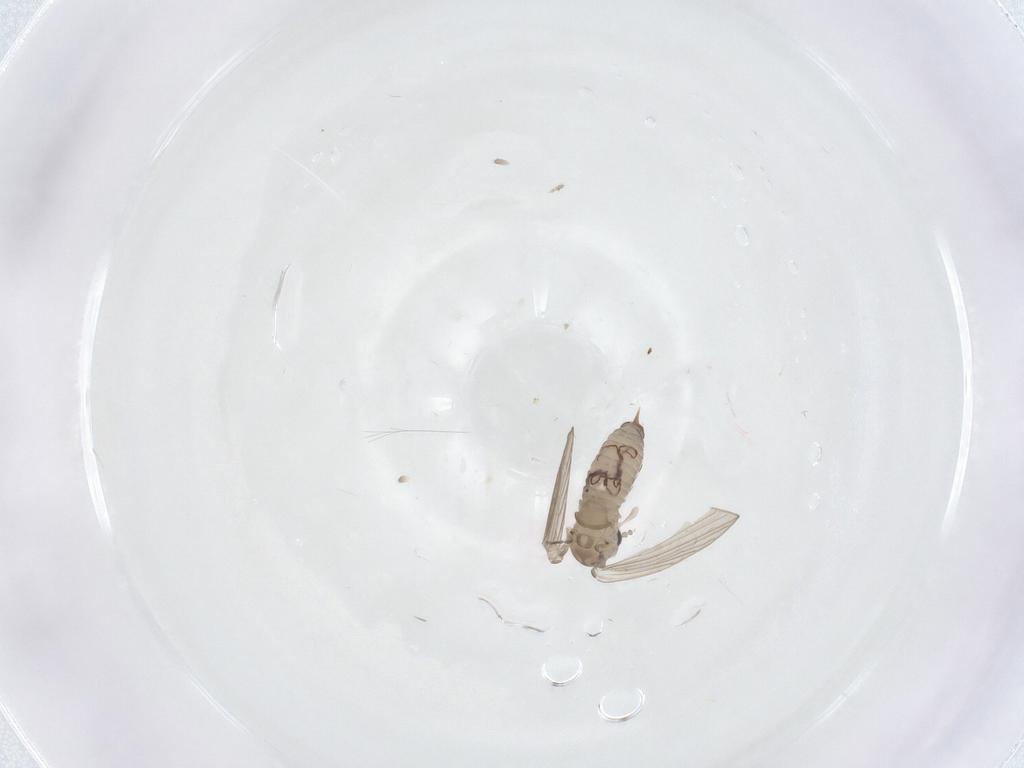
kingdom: Animalia
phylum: Arthropoda
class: Insecta
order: Diptera
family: Psychodidae
